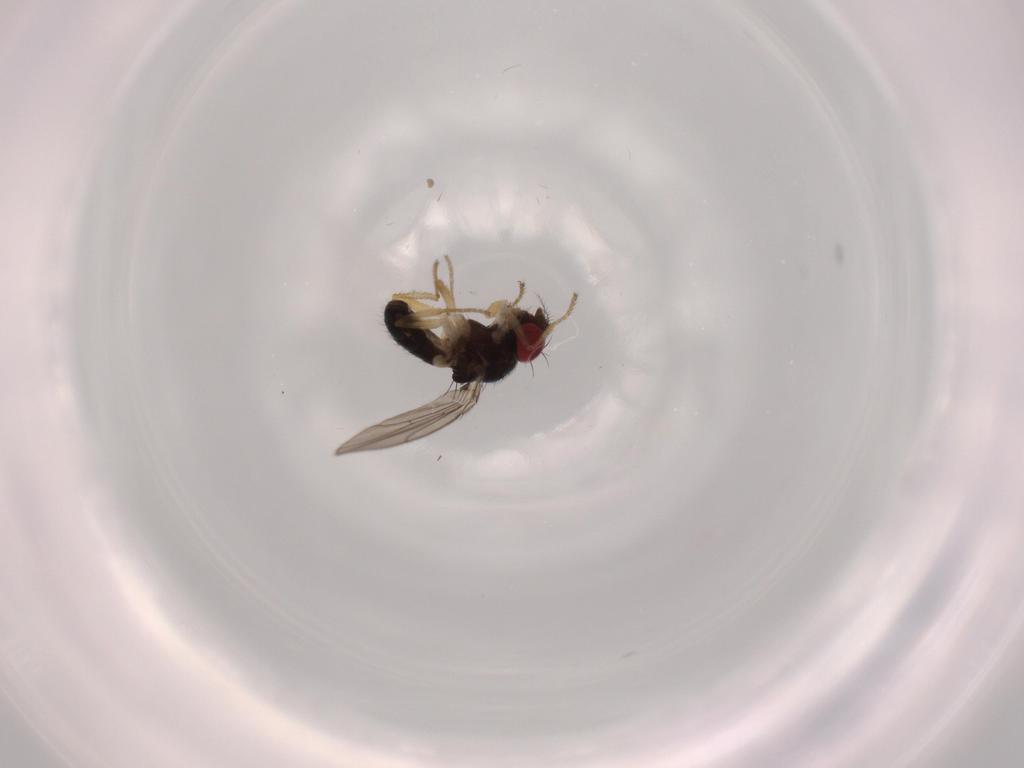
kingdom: Animalia
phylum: Arthropoda
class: Insecta
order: Diptera
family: Drosophilidae
